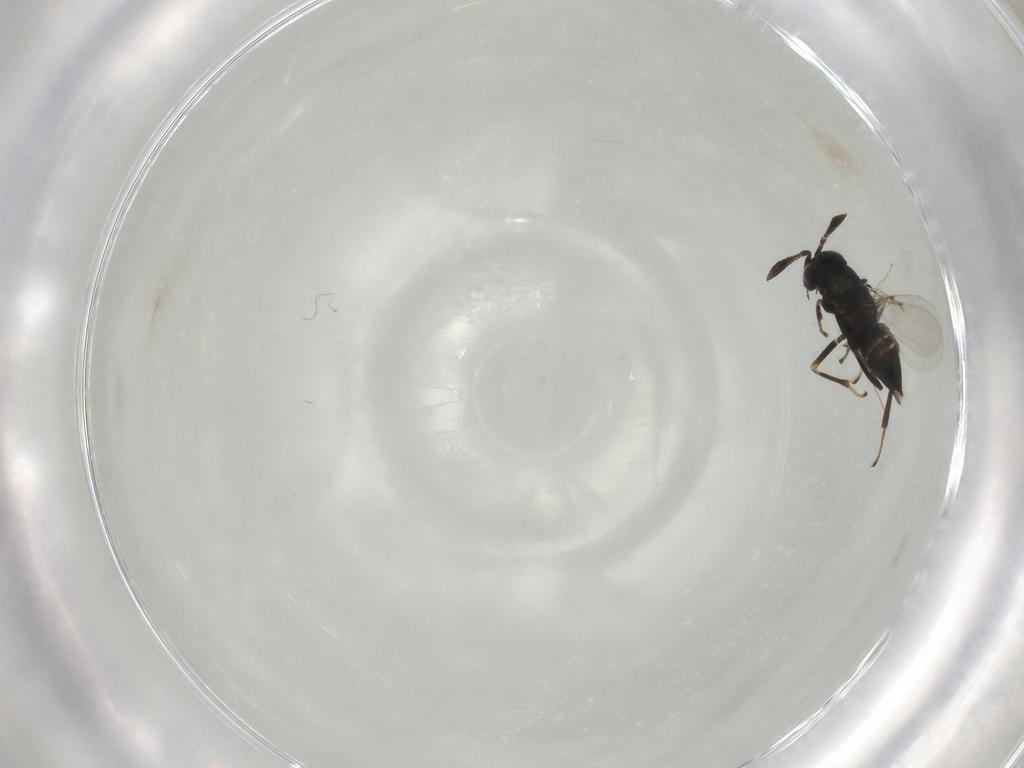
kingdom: Animalia
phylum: Arthropoda
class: Insecta
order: Hymenoptera
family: Encyrtidae
